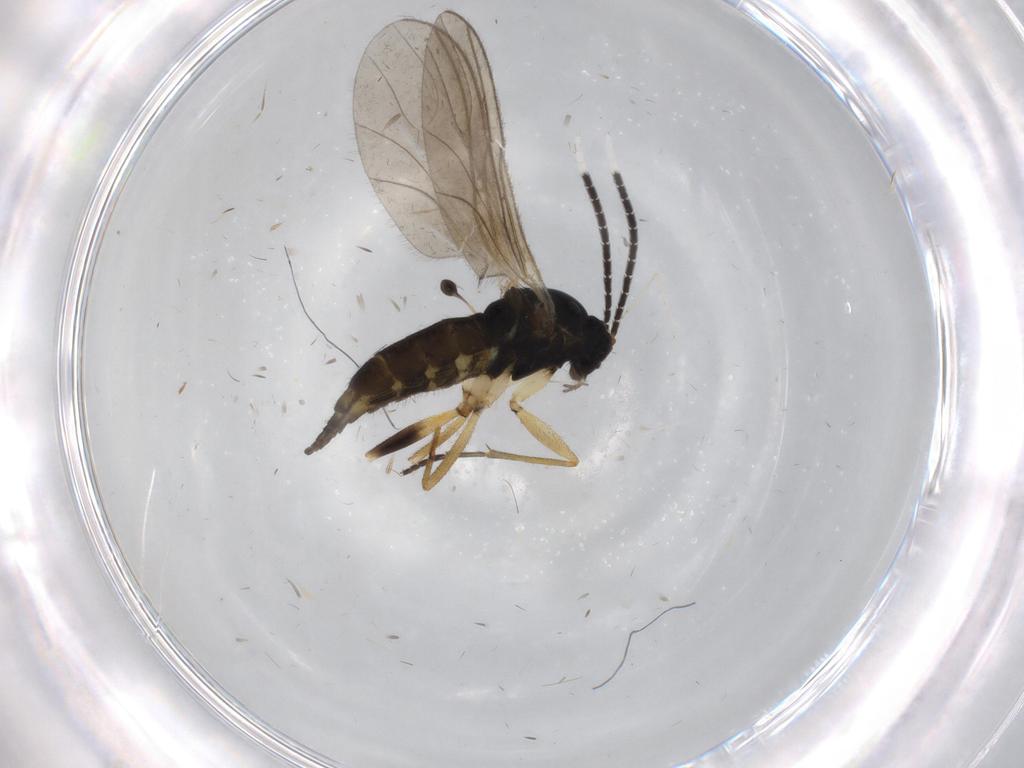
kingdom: Animalia
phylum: Arthropoda
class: Insecta
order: Diptera
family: Sciaridae
